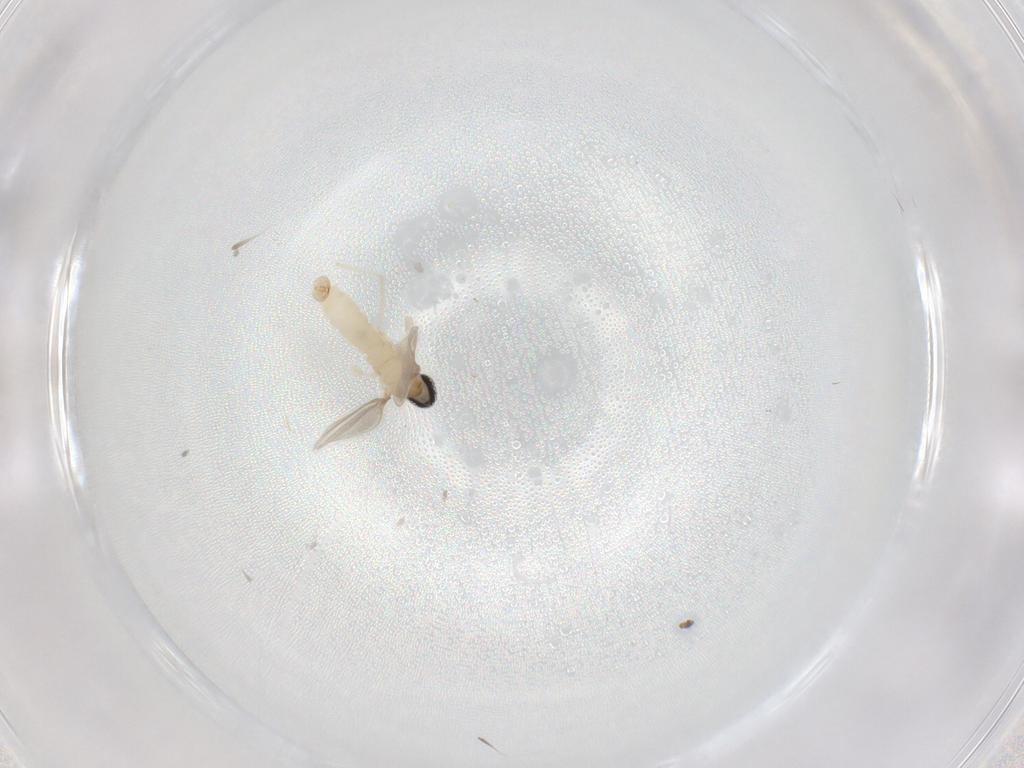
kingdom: Animalia
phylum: Arthropoda
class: Insecta
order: Diptera
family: Cecidomyiidae
